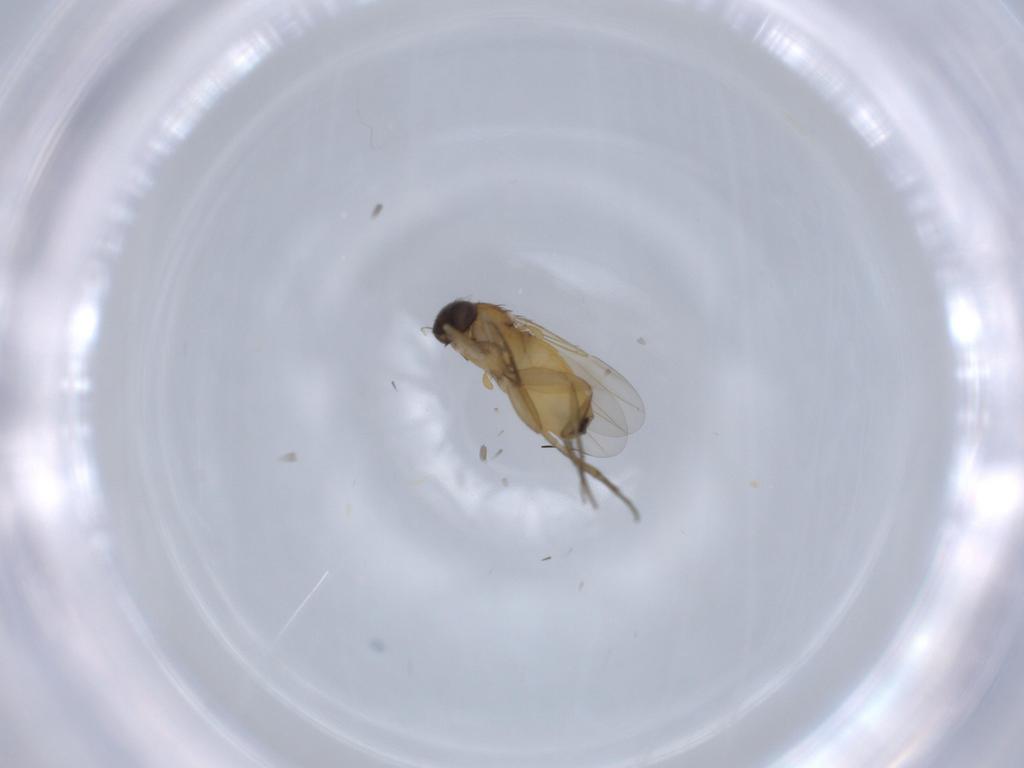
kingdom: Animalia
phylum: Arthropoda
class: Insecta
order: Diptera
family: Phoridae
